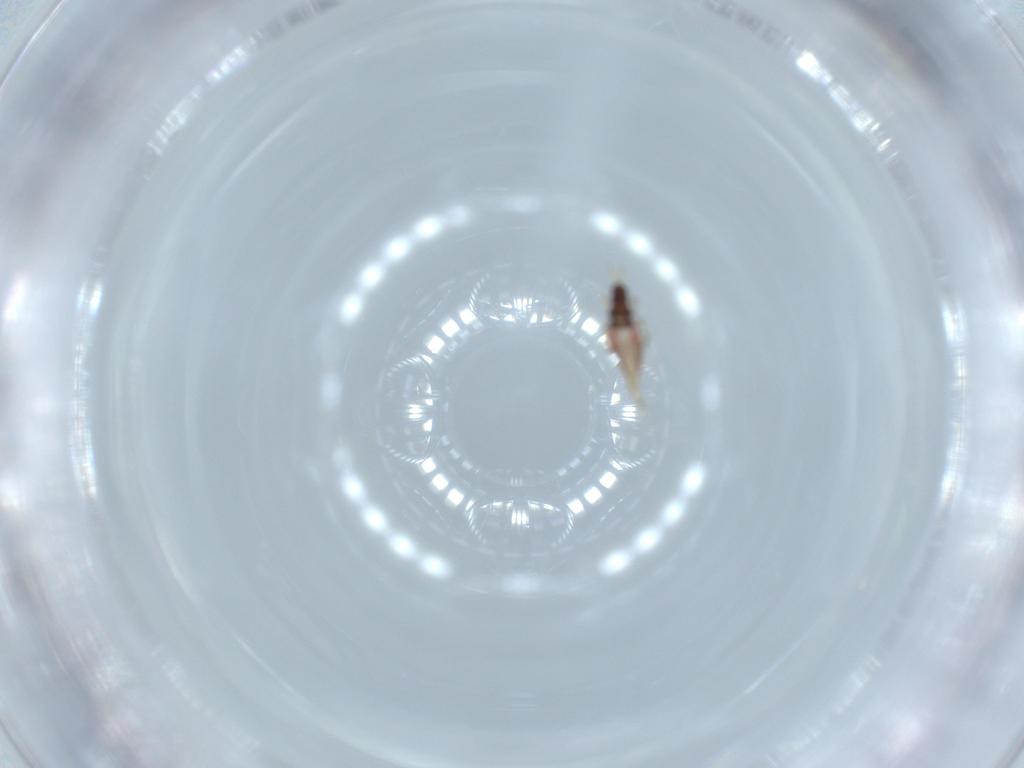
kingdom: Animalia
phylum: Arthropoda
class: Insecta
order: Thysanoptera
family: Phlaeothripidae
